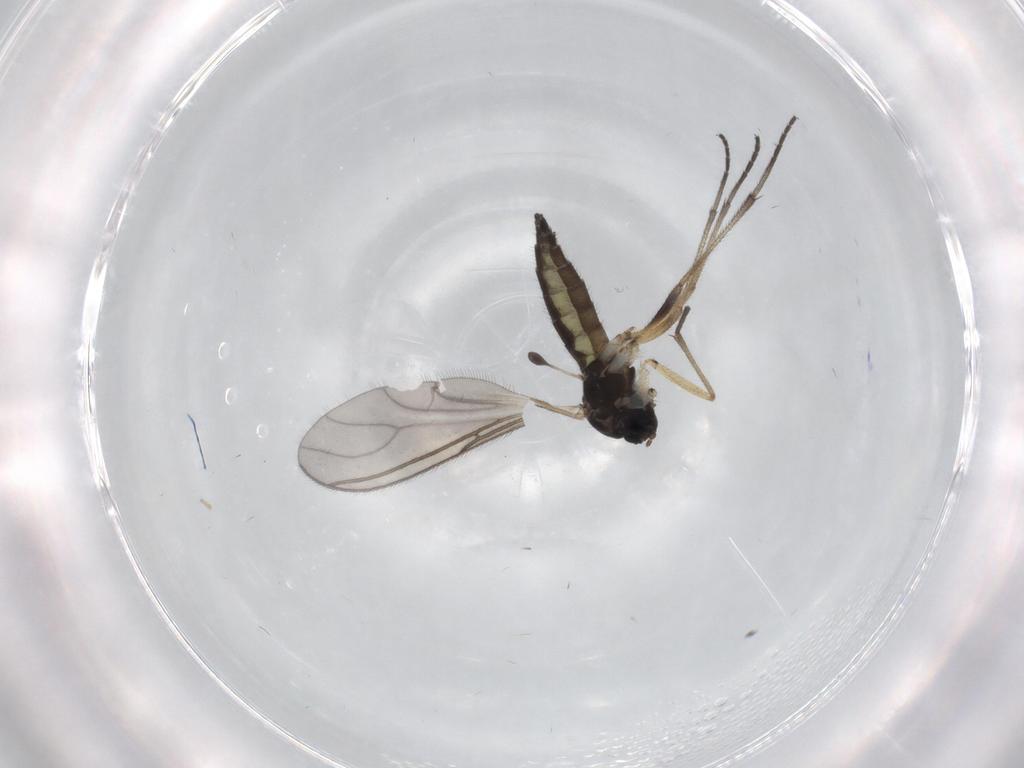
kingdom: Animalia
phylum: Arthropoda
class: Insecta
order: Diptera
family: Sciaridae
